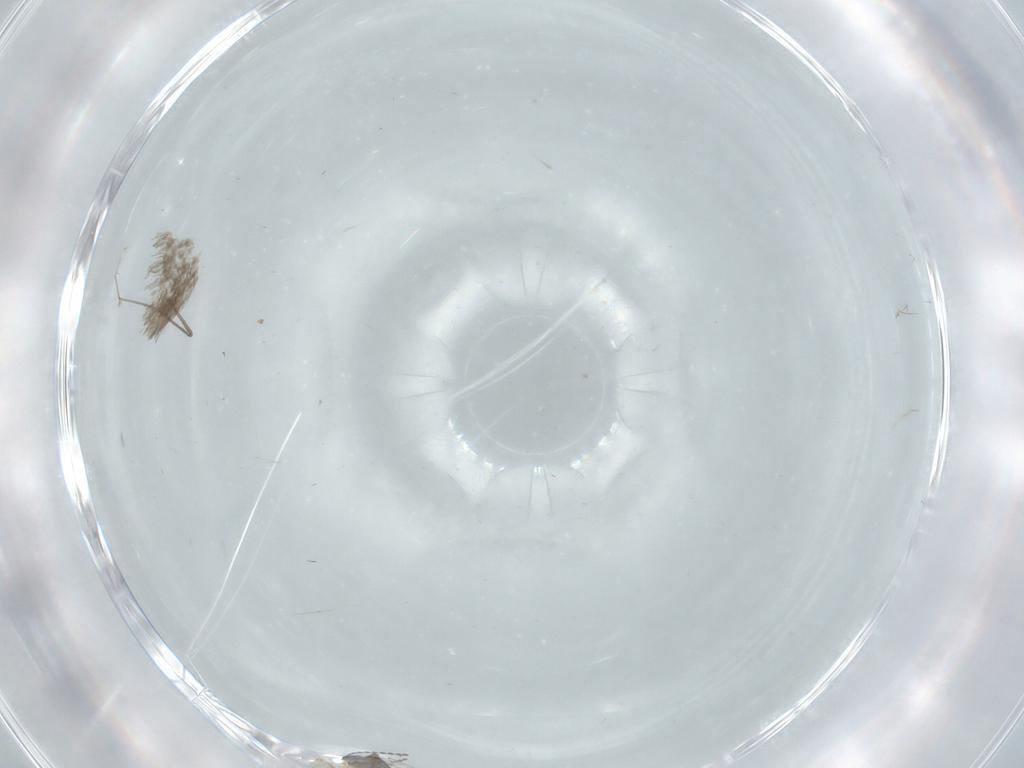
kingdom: Animalia
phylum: Arthropoda
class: Insecta
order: Diptera
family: Cecidomyiidae
